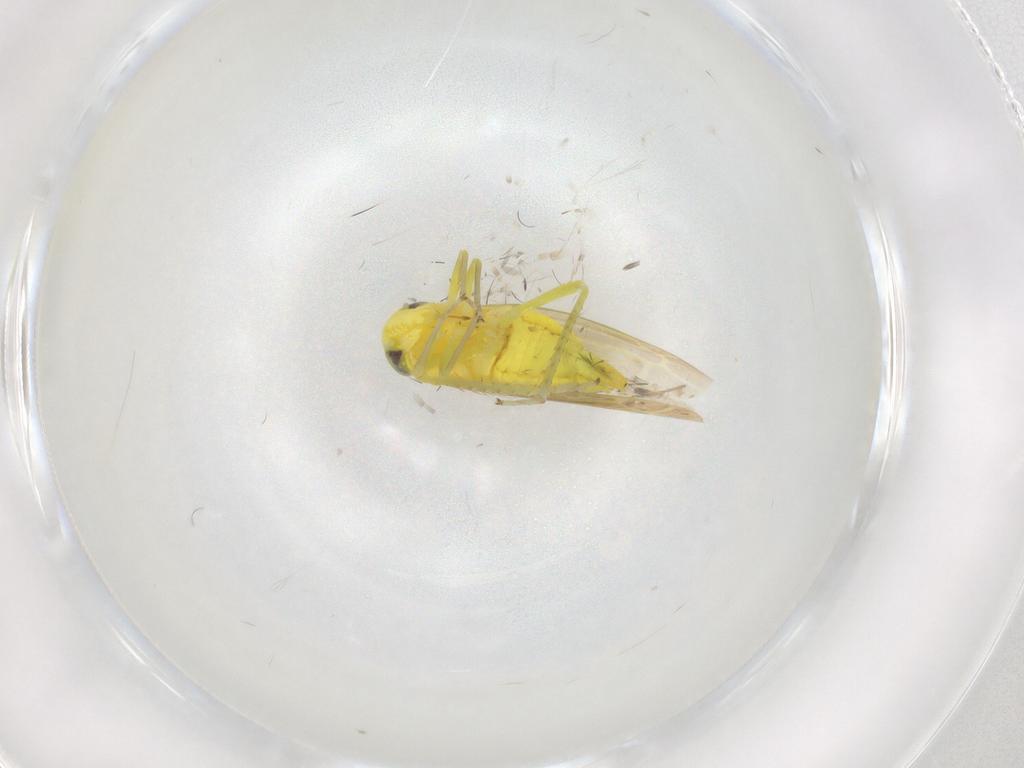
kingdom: Animalia
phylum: Arthropoda
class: Insecta
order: Hemiptera
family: Cicadellidae
